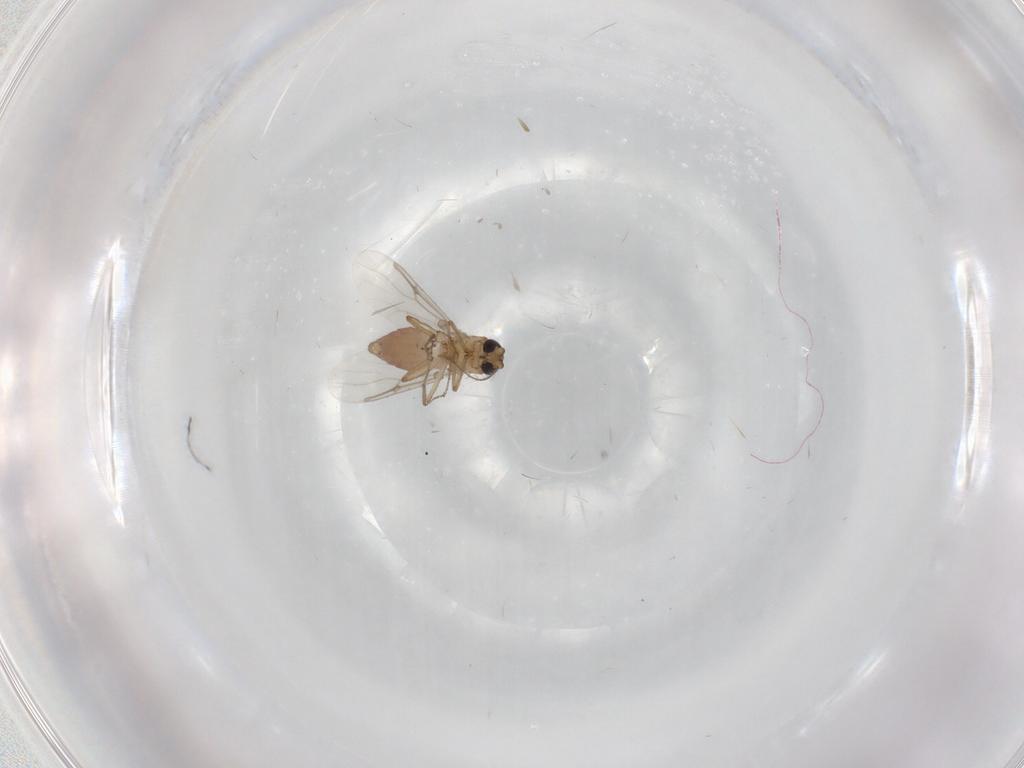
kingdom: Animalia
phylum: Arthropoda
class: Insecta
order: Diptera
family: Ceratopogonidae
